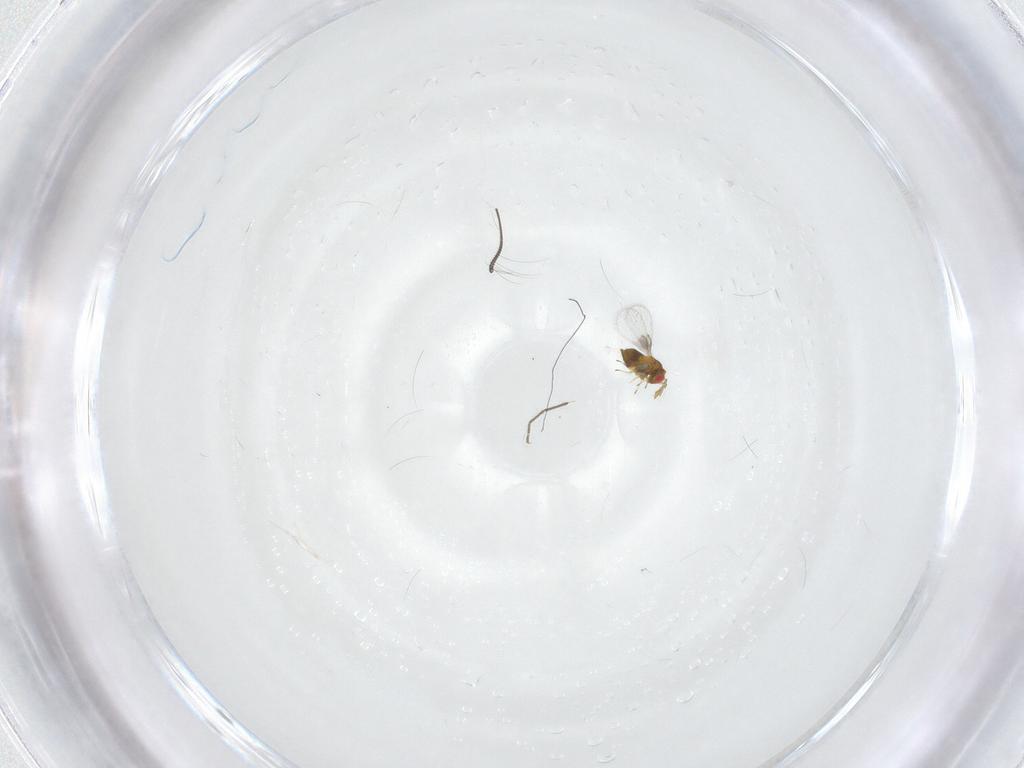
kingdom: Animalia
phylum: Arthropoda
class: Insecta
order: Hymenoptera
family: Trichogrammatidae
